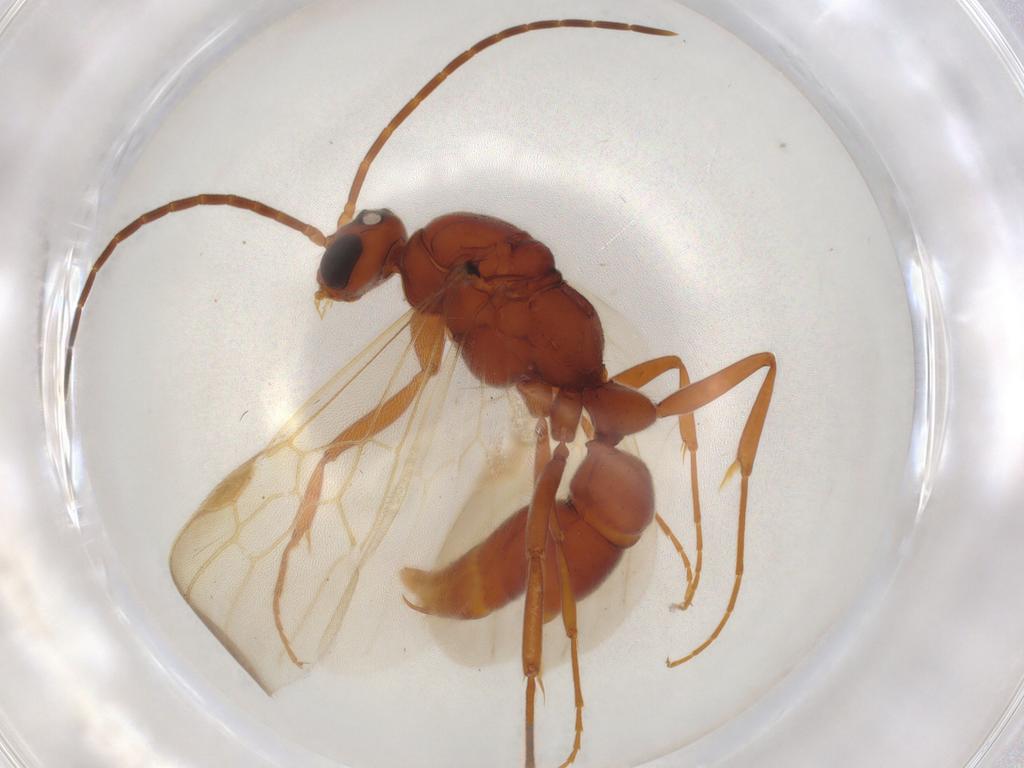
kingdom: Animalia
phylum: Arthropoda
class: Insecta
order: Hymenoptera
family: Formicidae
